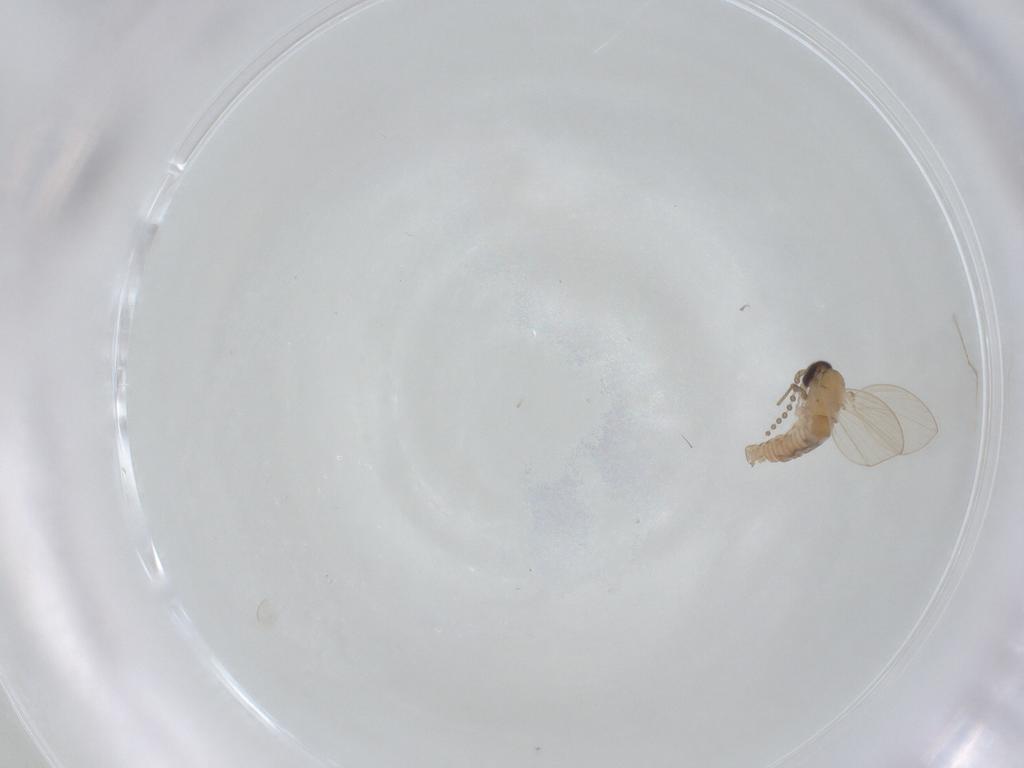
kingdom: Animalia
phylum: Arthropoda
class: Insecta
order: Diptera
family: Psychodidae
